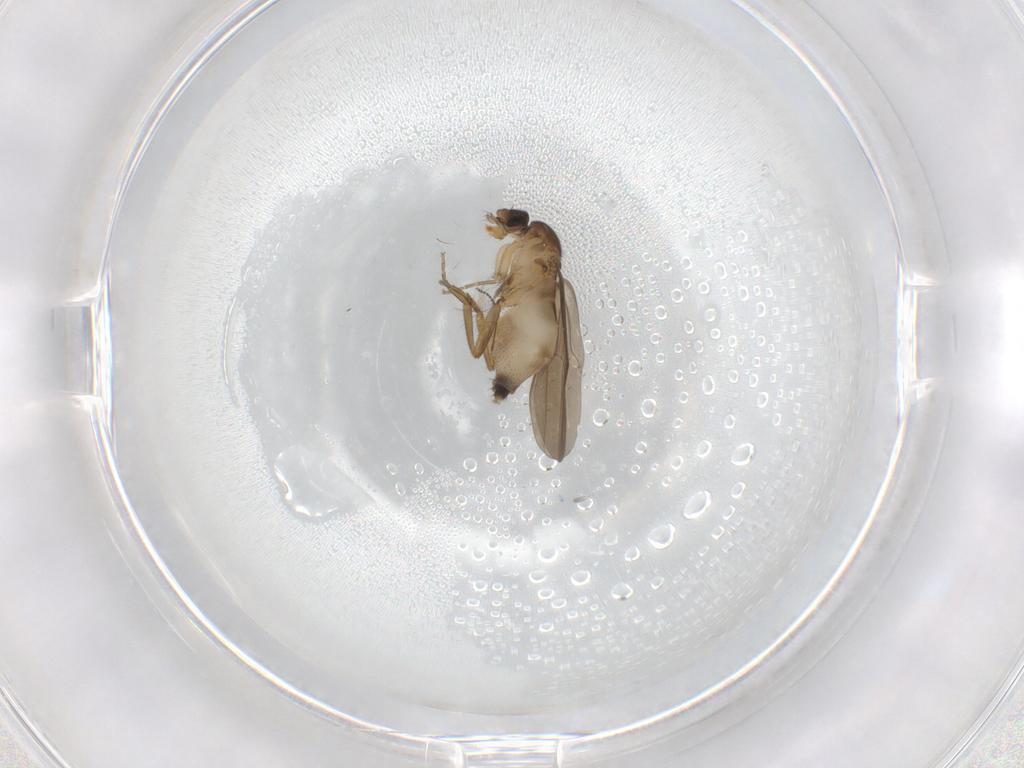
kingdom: Animalia
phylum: Arthropoda
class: Insecta
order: Diptera
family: Phoridae
